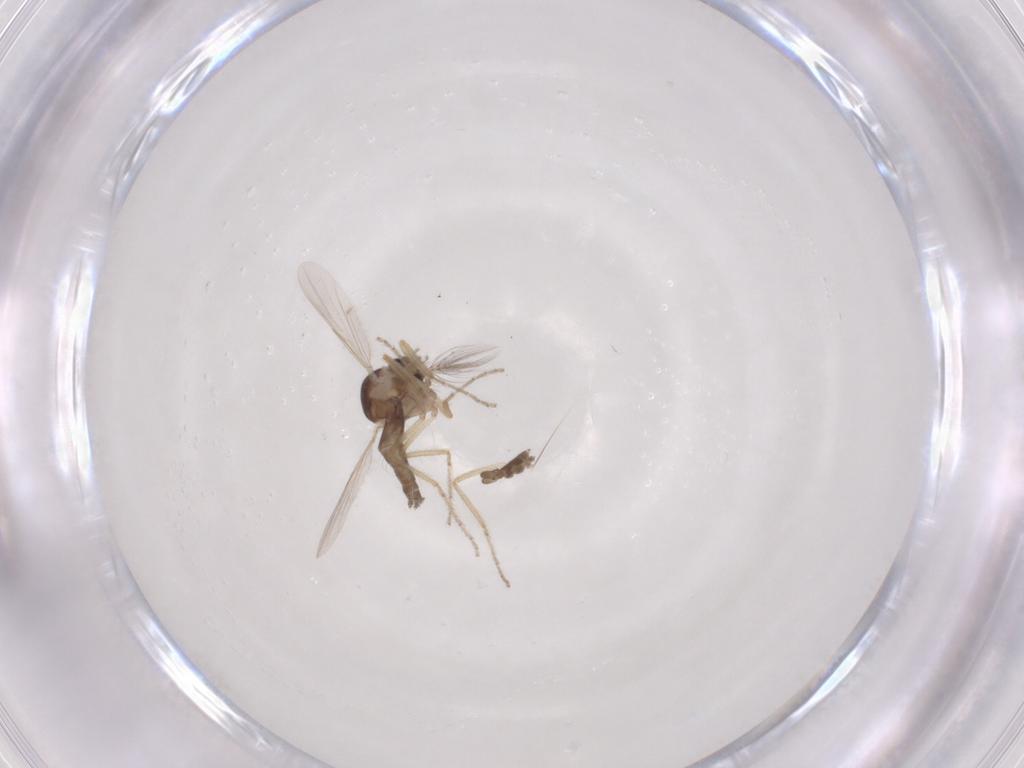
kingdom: Animalia
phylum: Arthropoda
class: Insecta
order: Diptera
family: Ceratopogonidae
